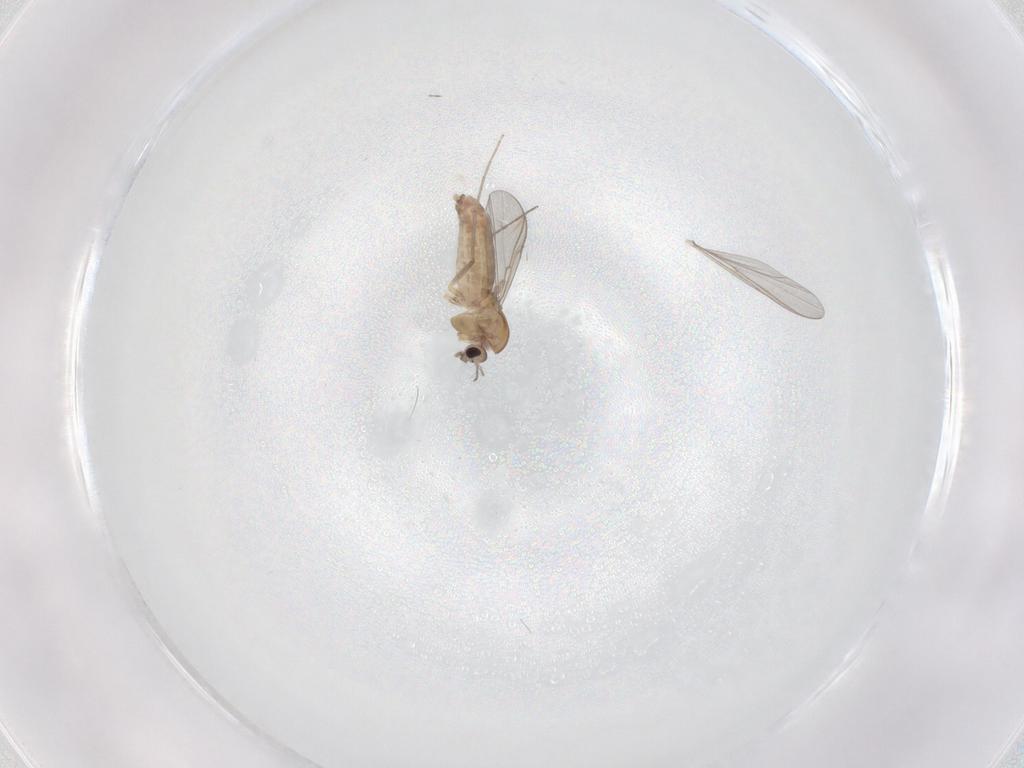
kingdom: Animalia
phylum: Arthropoda
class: Insecta
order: Diptera
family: Chironomidae
